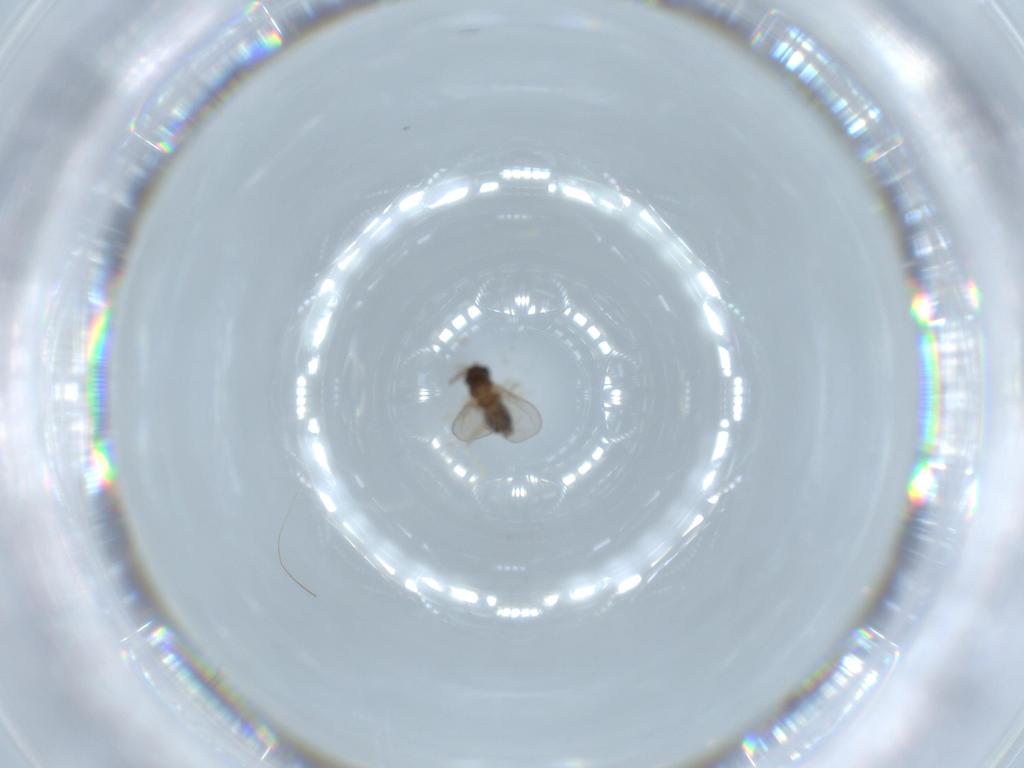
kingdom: Animalia
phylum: Arthropoda
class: Insecta
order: Diptera
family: Cecidomyiidae
